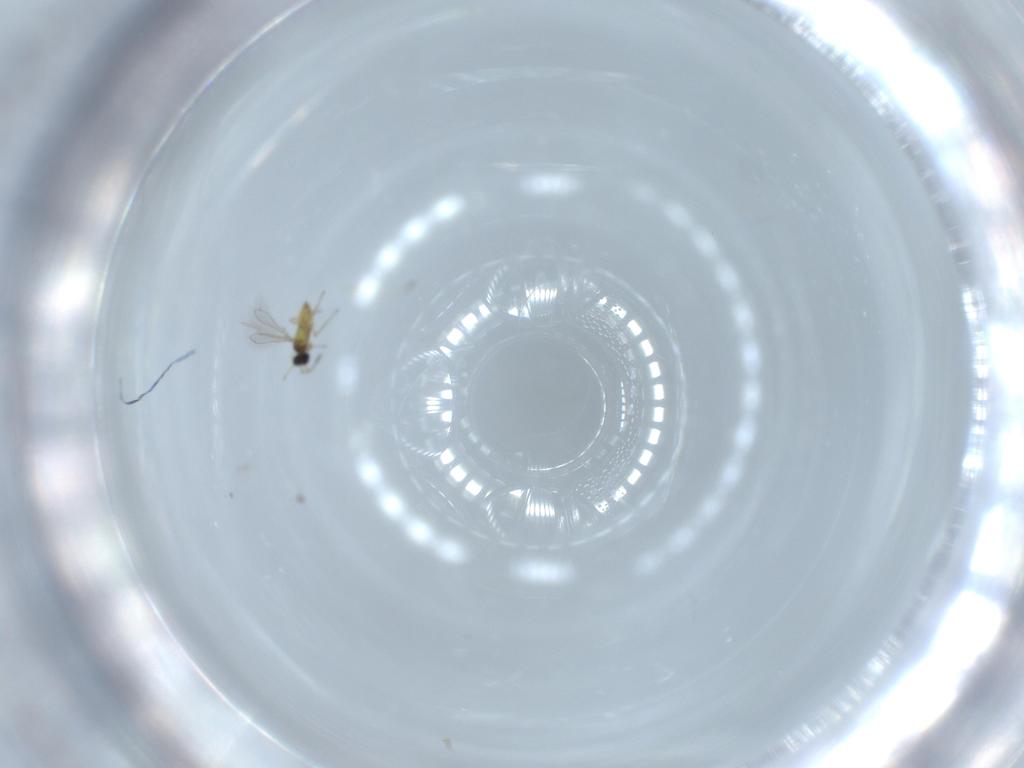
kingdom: Animalia
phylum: Arthropoda
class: Insecta
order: Hymenoptera
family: Mymaridae
